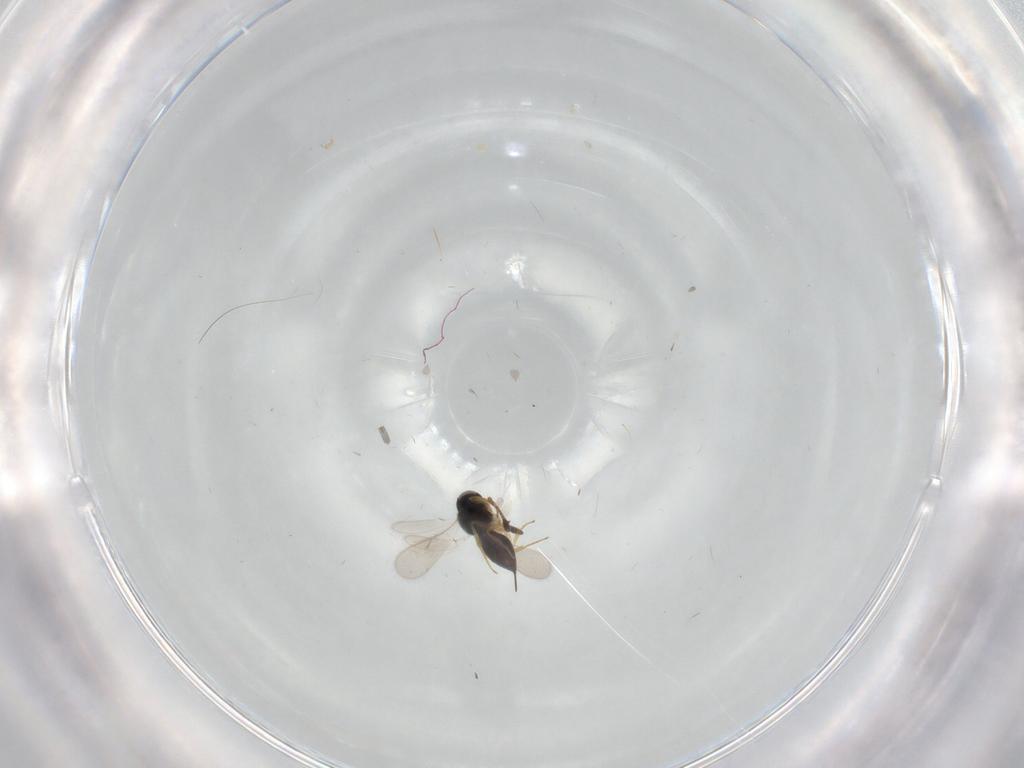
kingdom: Animalia
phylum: Arthropoda
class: Insecta
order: Hymenoptera
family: Scelionidae
